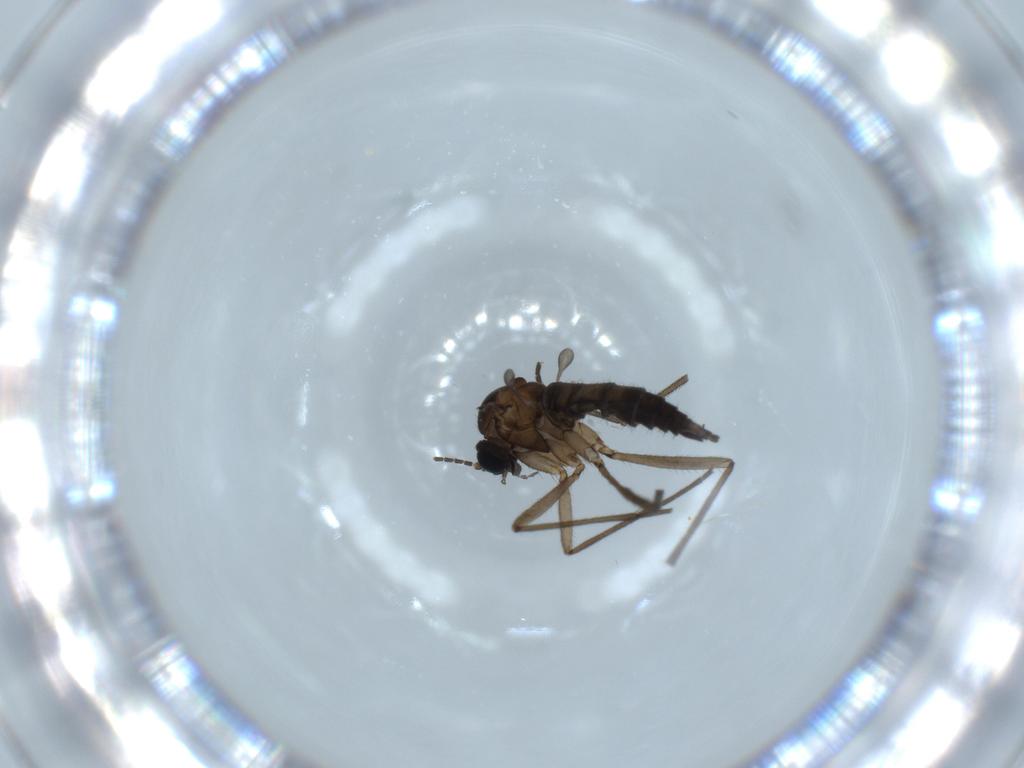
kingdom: Animalia
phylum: Arthropoda
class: Insecta
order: Diptera
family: Sciaridae
